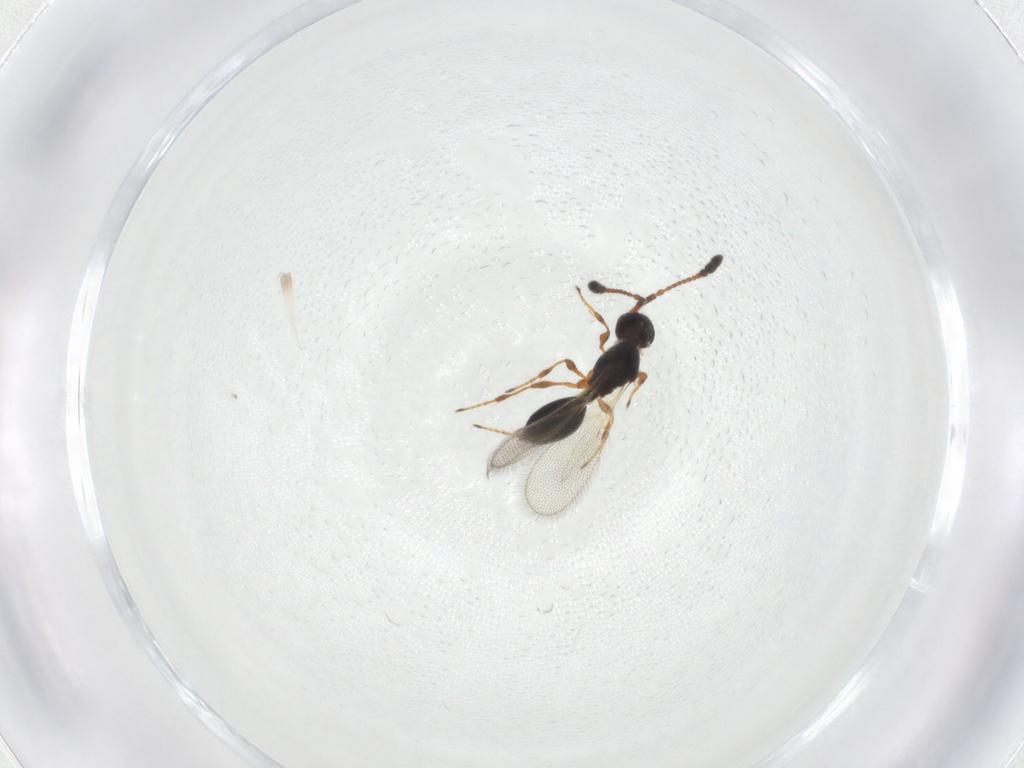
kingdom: Animalia
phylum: Arthropoda
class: Insecta
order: Hymenoptera
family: Diapriidae
